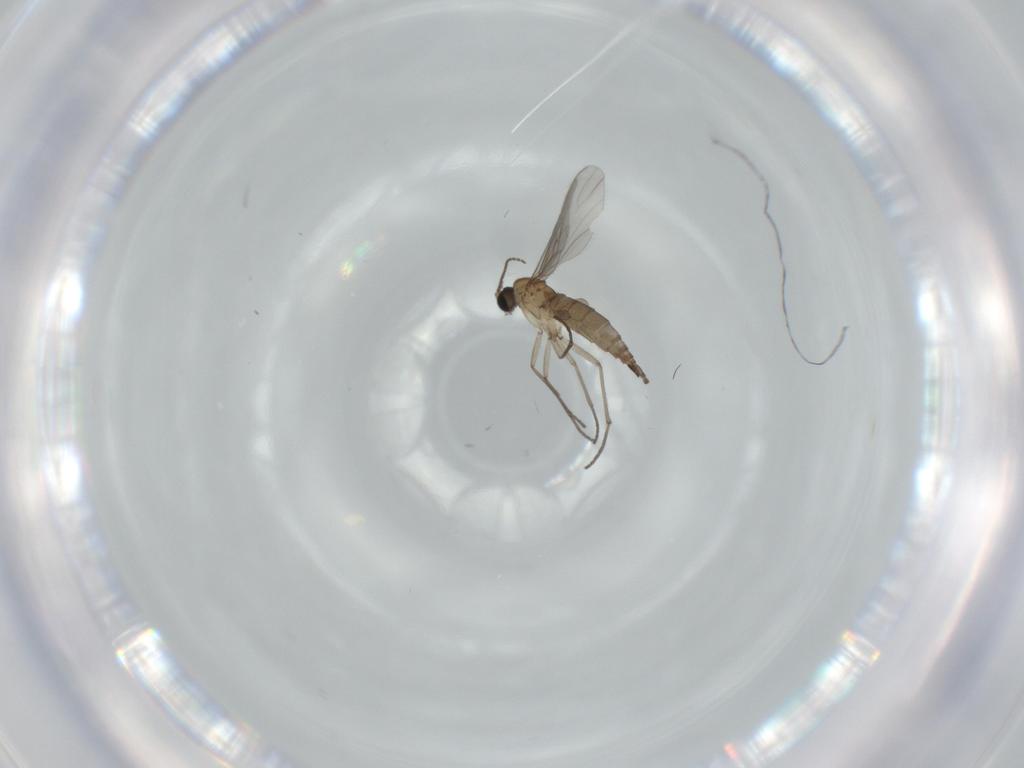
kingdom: Animalia
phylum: Arthropoda
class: Insecta
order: Diptera
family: Sciaridae
